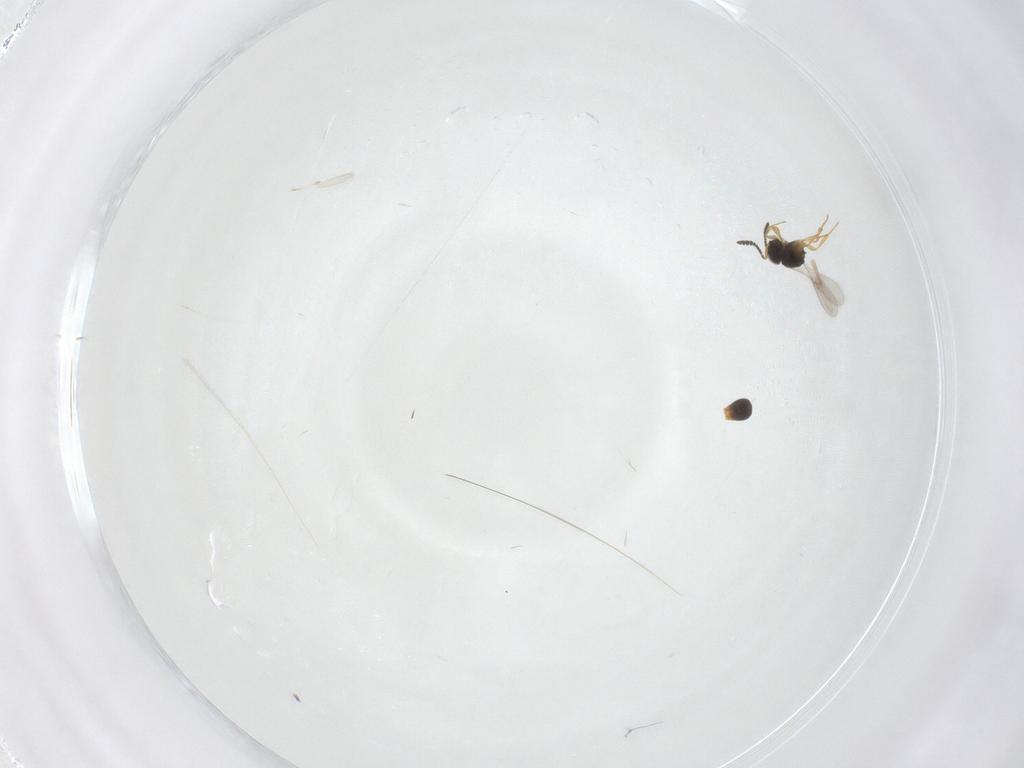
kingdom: Animalia
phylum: Arthropoda
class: Insecta
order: Hymenoptera
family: Scelionidae
